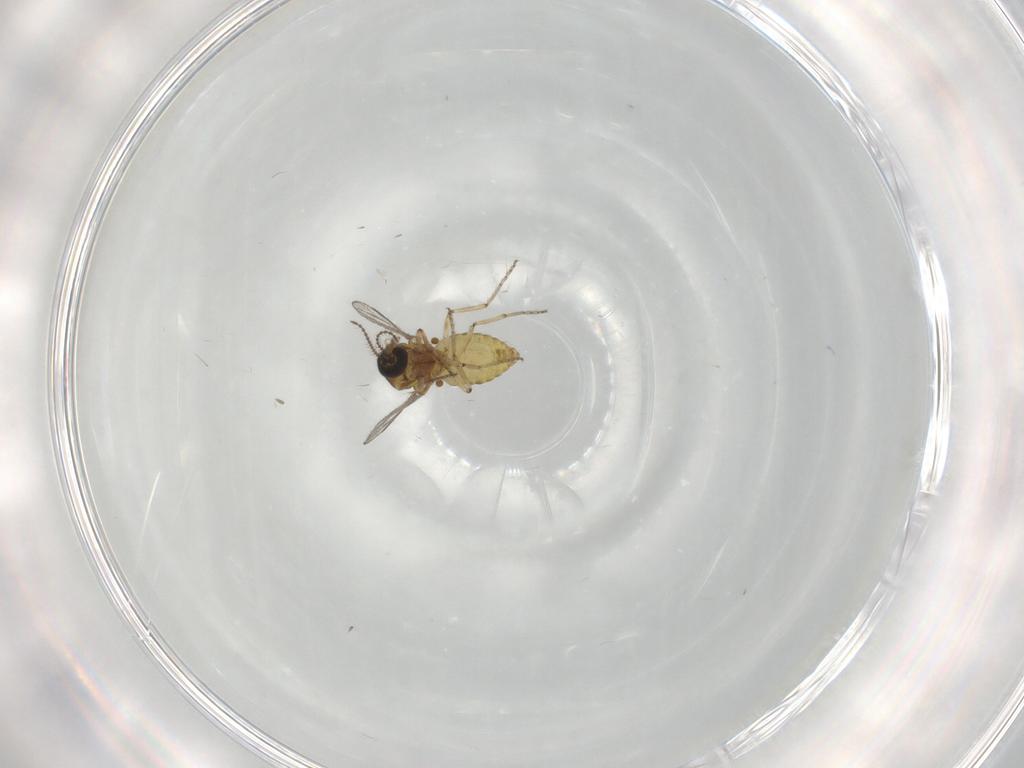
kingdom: Animalia
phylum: Arthropoda
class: Insecta
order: Diptera
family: Ceratopogonidae
